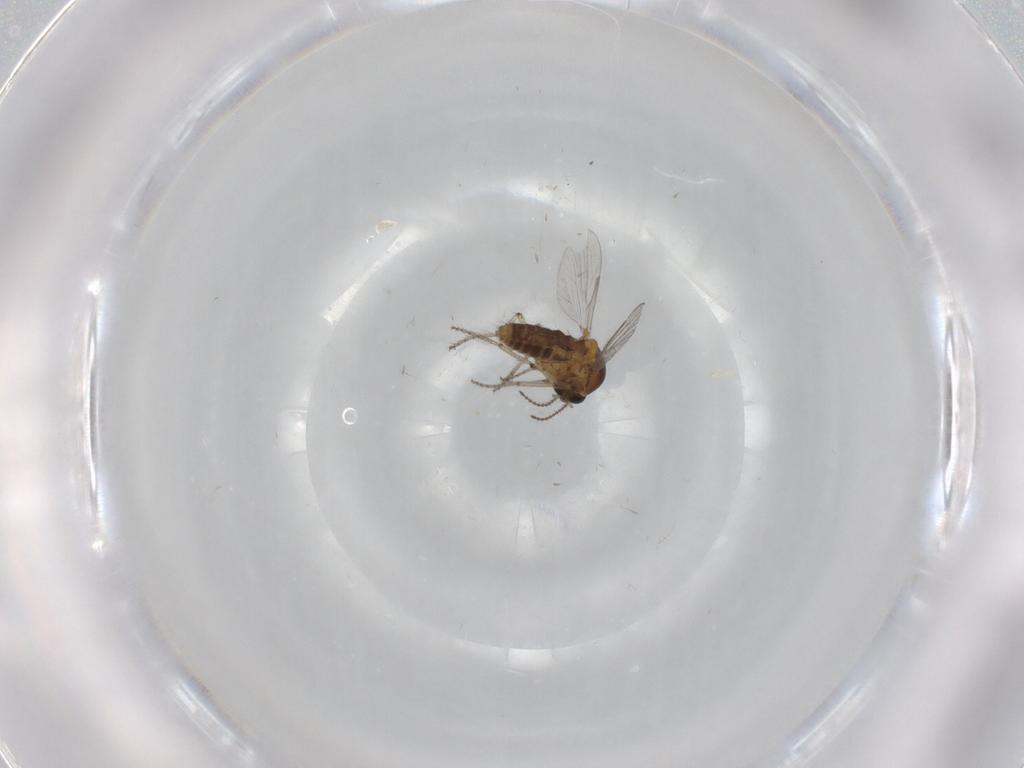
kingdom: Animalia
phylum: Arthropoda
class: Insecta
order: Diptera
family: Ceratopogonidae
